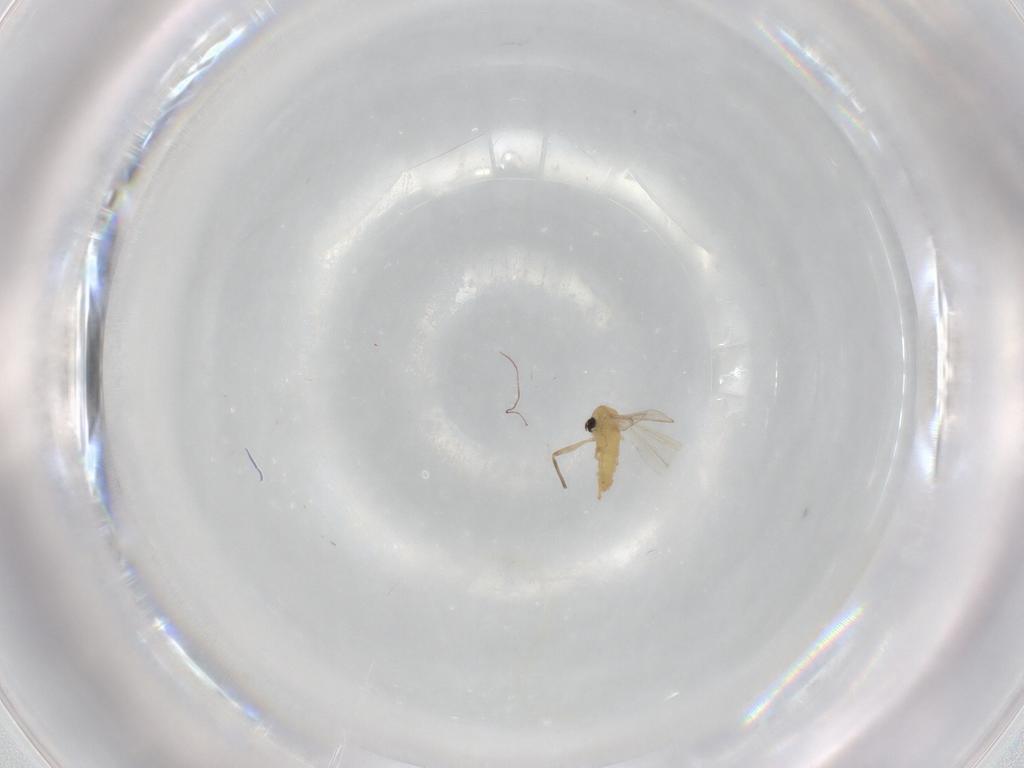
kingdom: Animalia
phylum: Arthropoda
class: Insecta
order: Diptera
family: Chironomidae
